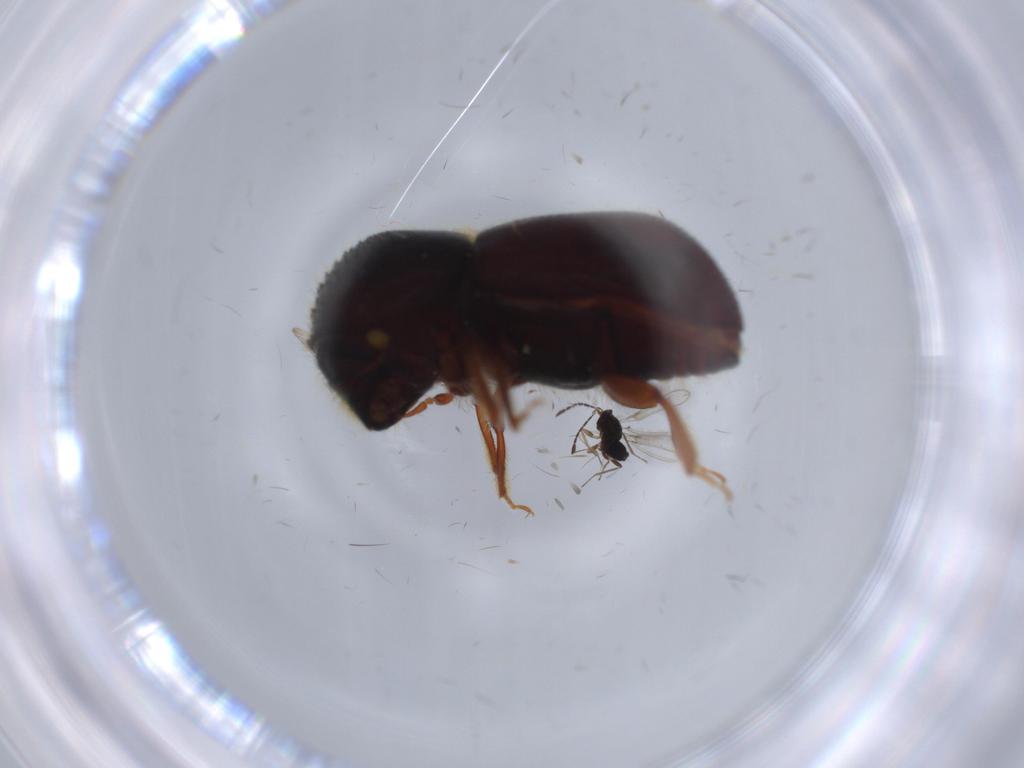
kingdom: Animalia
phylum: Arthropoda
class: Insecta
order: Coleoptera
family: Curculionidae
